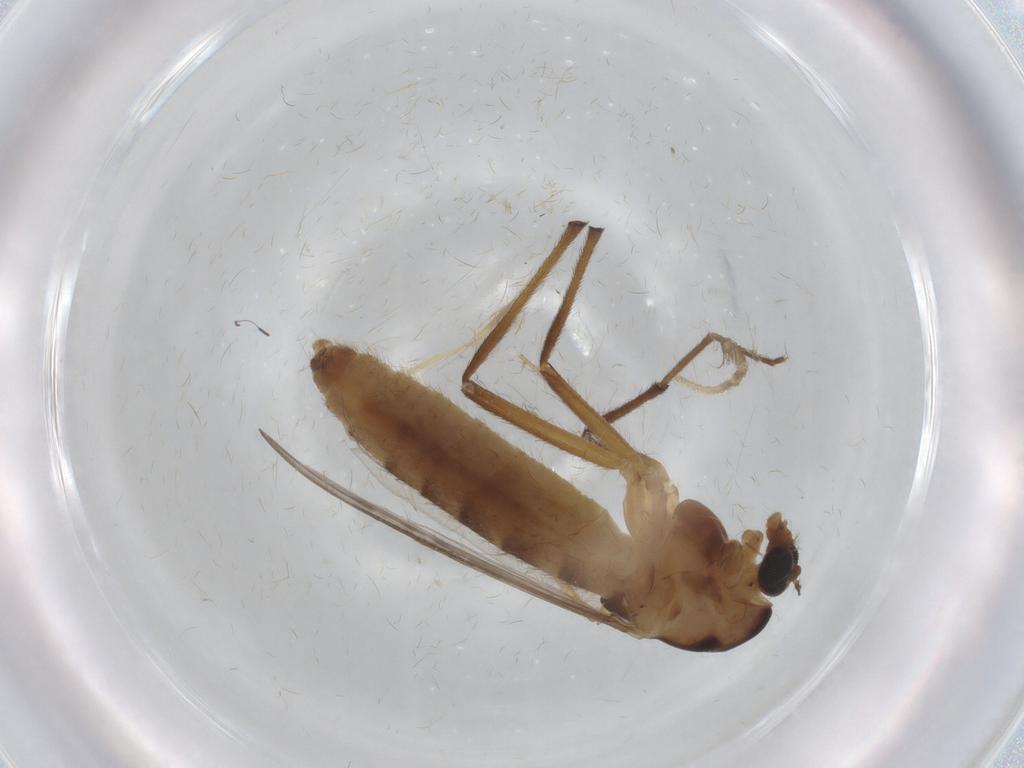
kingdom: Animalia
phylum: Arthropoda
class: Insecta
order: Diptera
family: Chironomidae
